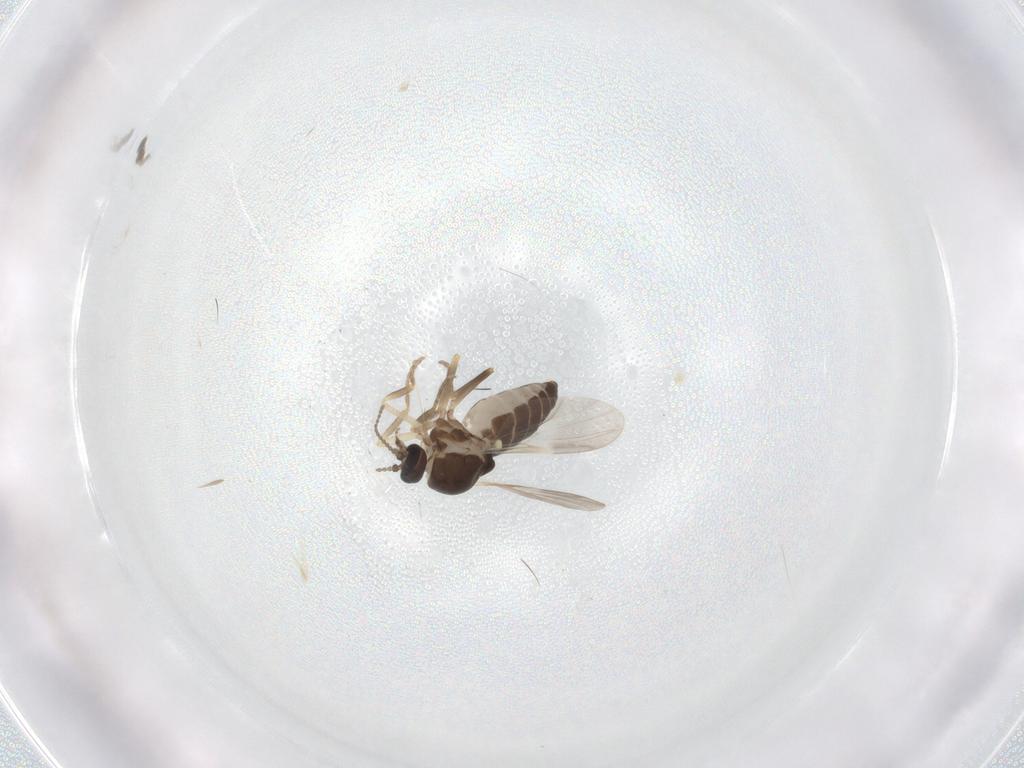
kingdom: Animalia
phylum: Arthropoda
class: Insecta
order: Diptera
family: Ceratopogonidae
